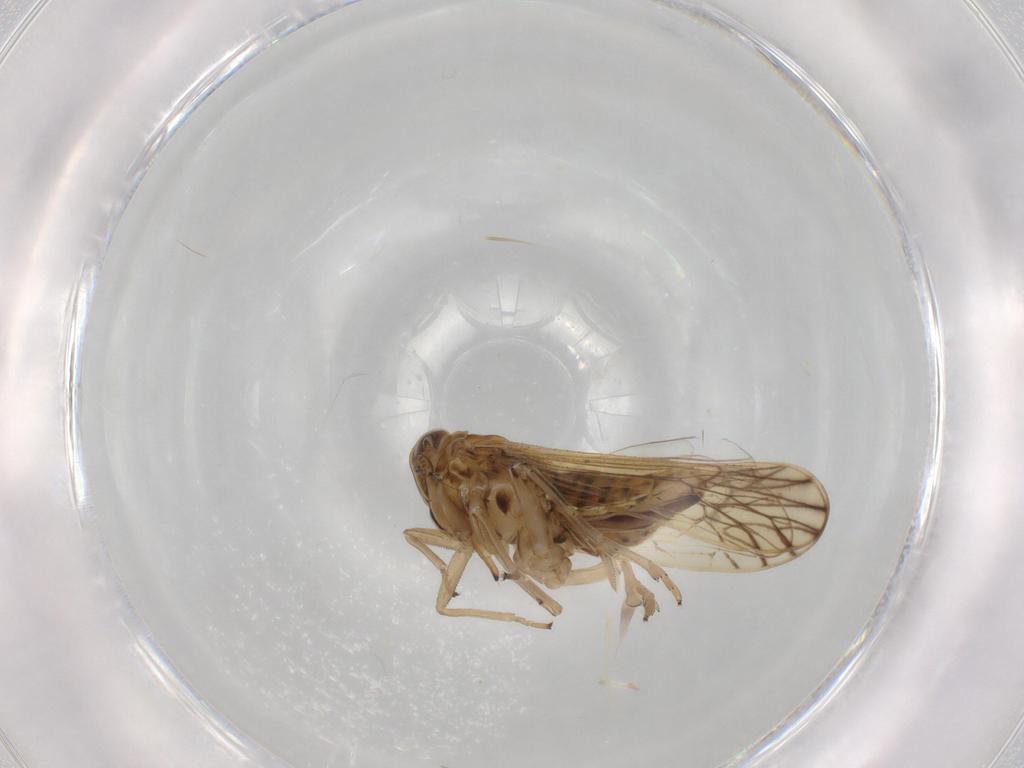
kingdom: Animalia
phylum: Arthropoda
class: Insecta
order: Hemiptera
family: Delphacidae
